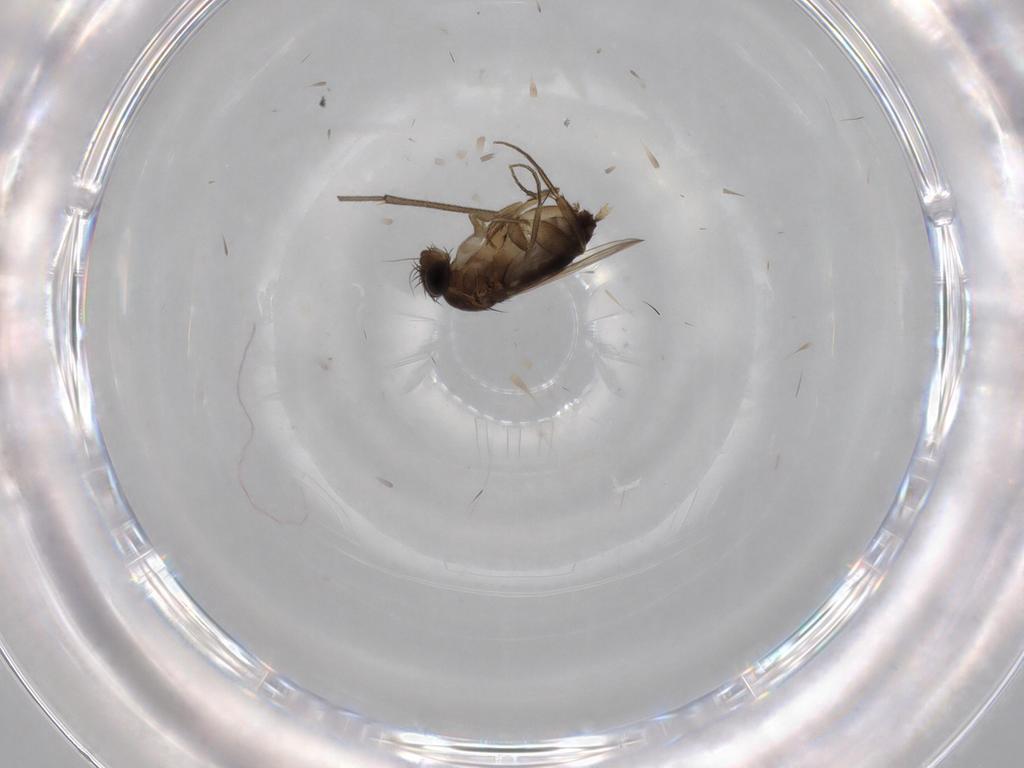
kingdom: Animalia
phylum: Arthropoda
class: Insecta
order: Diptera
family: Phoridae
